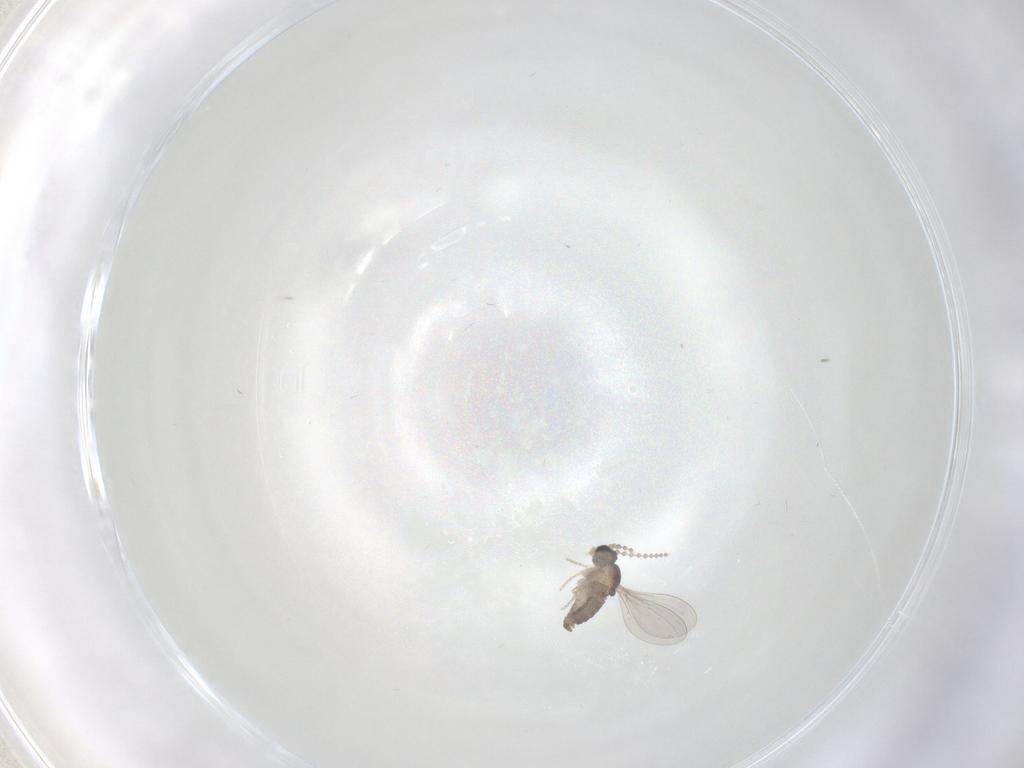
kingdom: Animalia
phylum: Arthropoda
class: Insecta
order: Diptera
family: Cecidomyiidae
